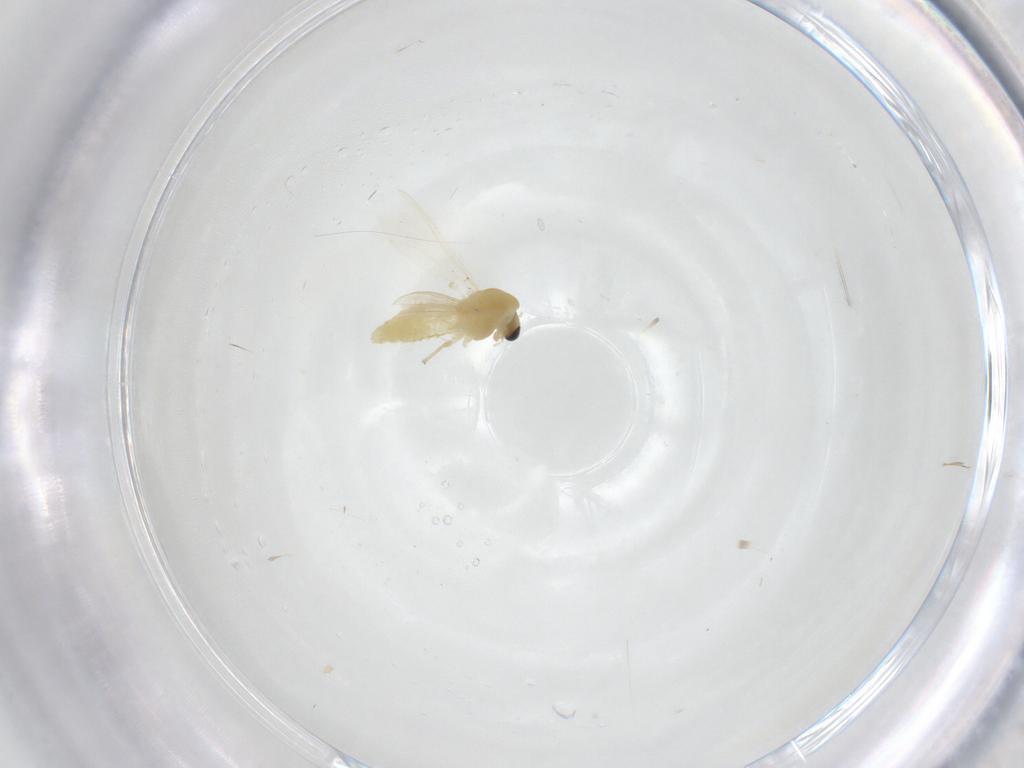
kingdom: Animalia
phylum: Arthropoda
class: Insecta
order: Diptera
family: Chironomidae
